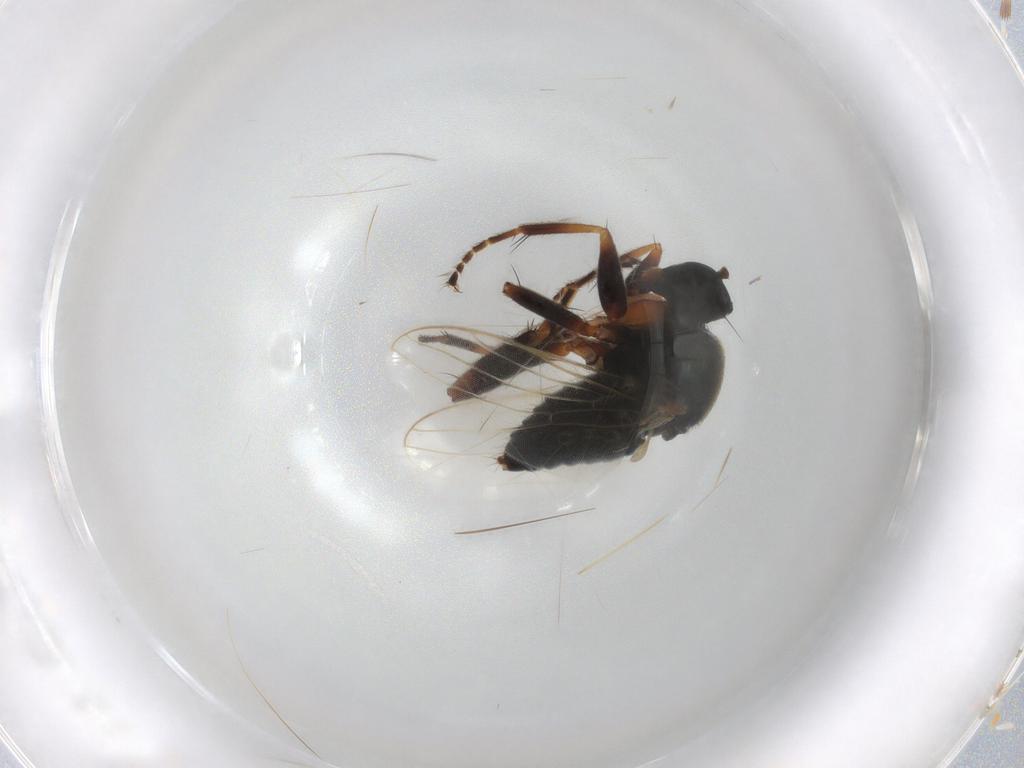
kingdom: Animalia
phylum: Arthropoda
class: Insecta
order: Diptera
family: Hybotidae
